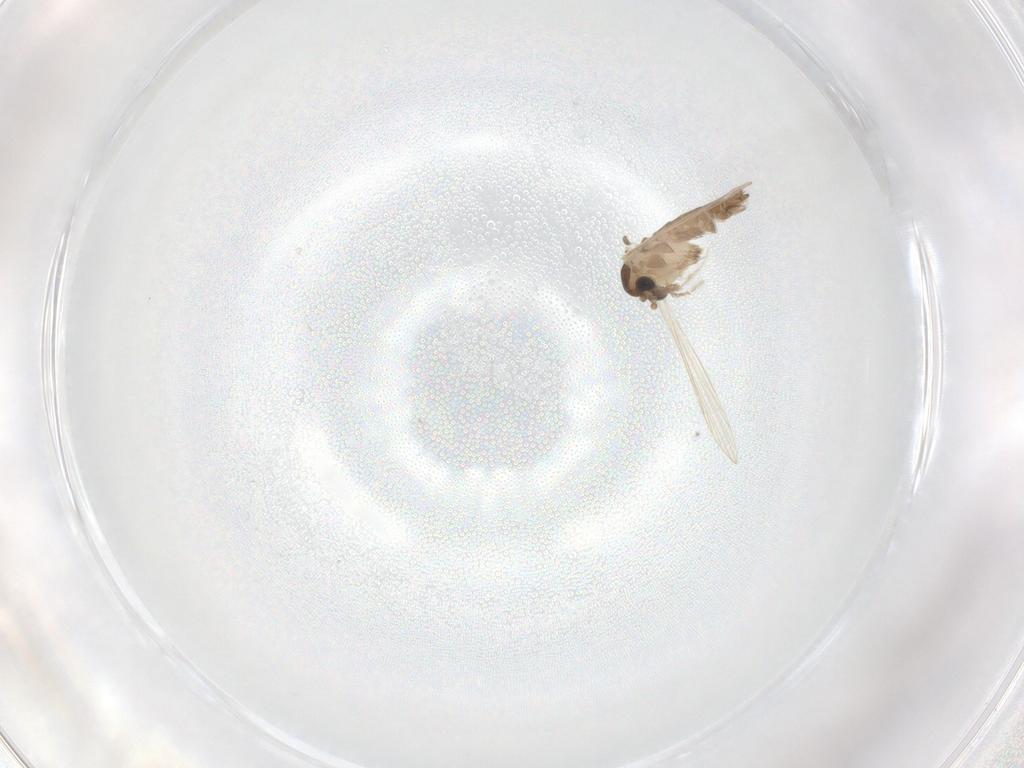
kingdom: Animalia
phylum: Arthropoda
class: Insecta
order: Diptera
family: Psychodidae
